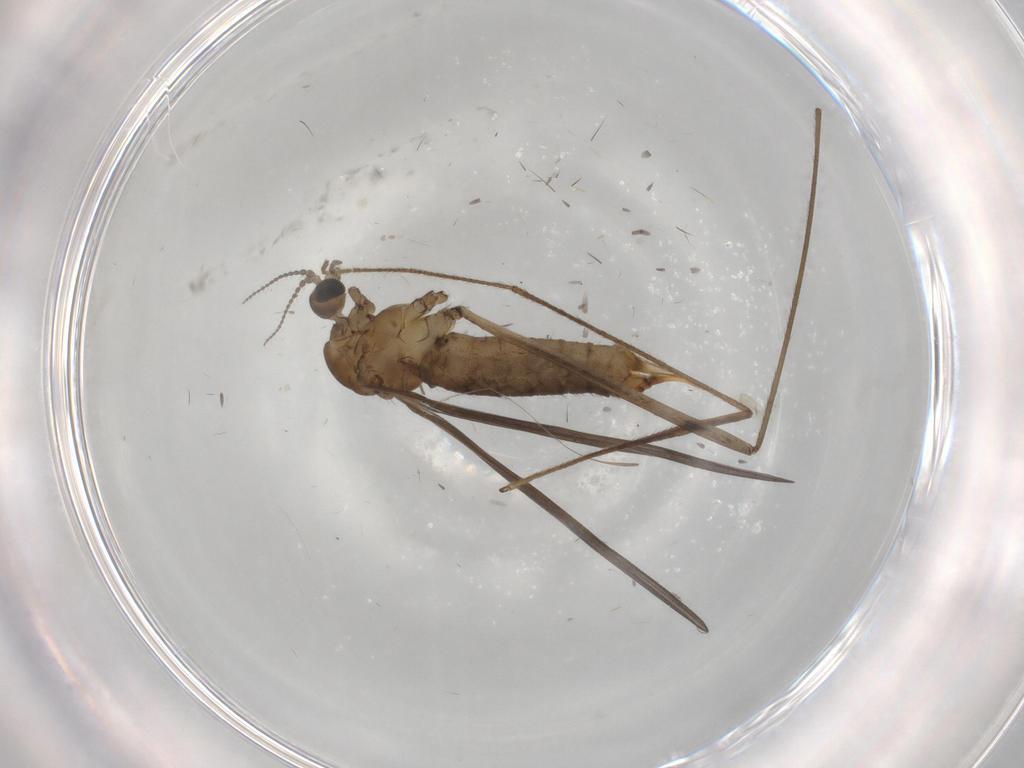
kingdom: Animalia
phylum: Arthropoda
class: Insecta
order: Diptera
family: Limoniidae
